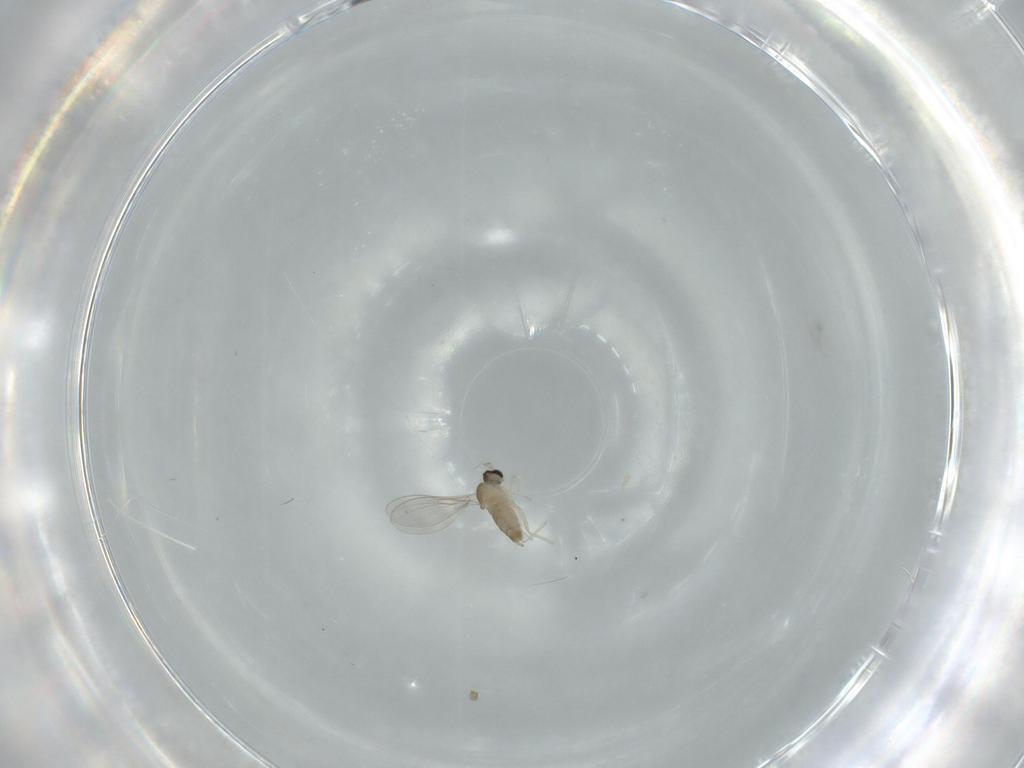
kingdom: Animalia
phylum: Arthropoda
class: Insecta
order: Diptera
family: Cecidomyiidae
